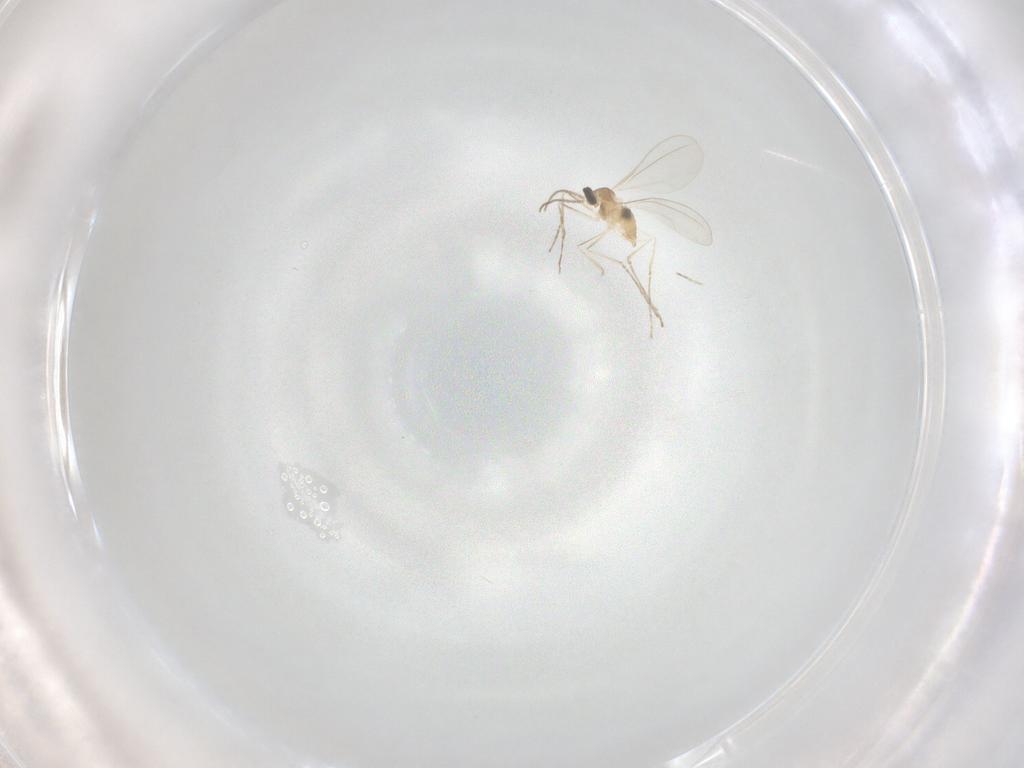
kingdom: Animalia
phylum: Arthropoda
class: Insecta
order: Diptera
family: Cecidomyiidae
